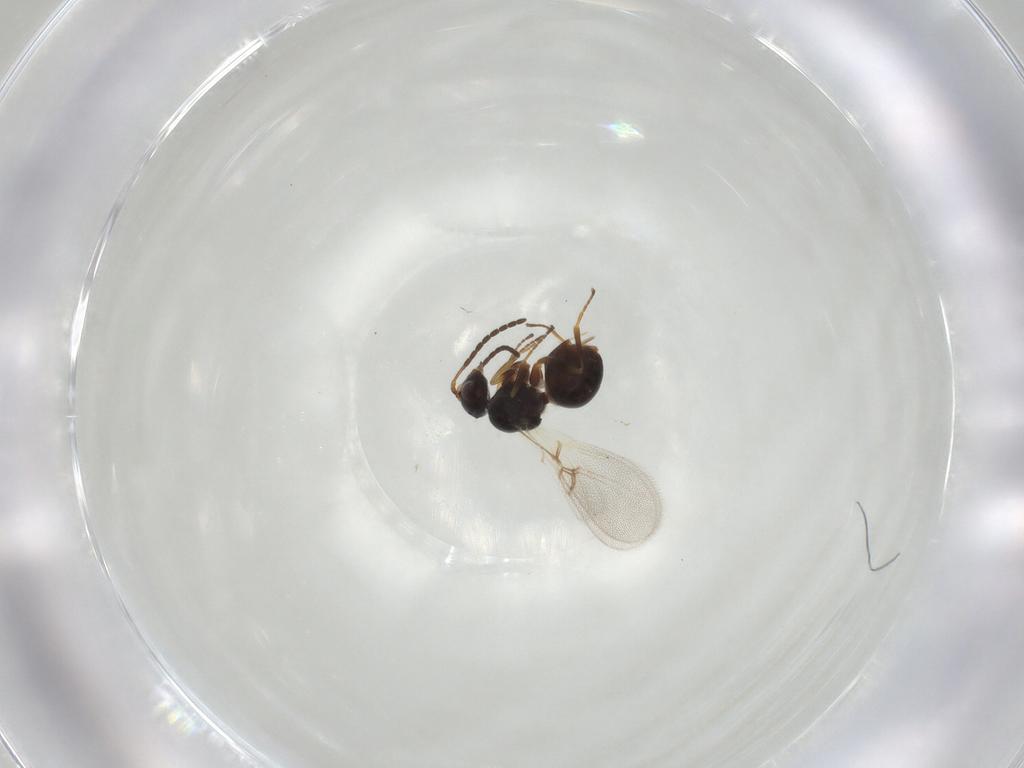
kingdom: Animalia
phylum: Arthropoda
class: Insecta
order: Hymenoptera
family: Figitidae
